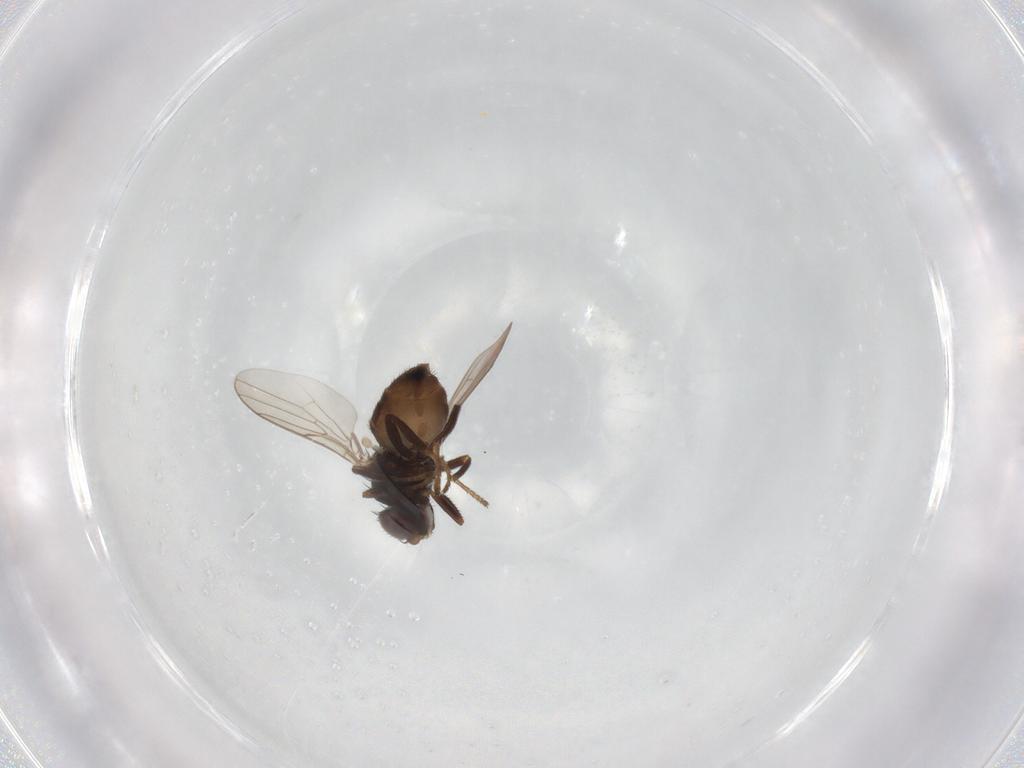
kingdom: Animalia
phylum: Arthropoda
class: Insecta
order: Diptera
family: Chloropidae
